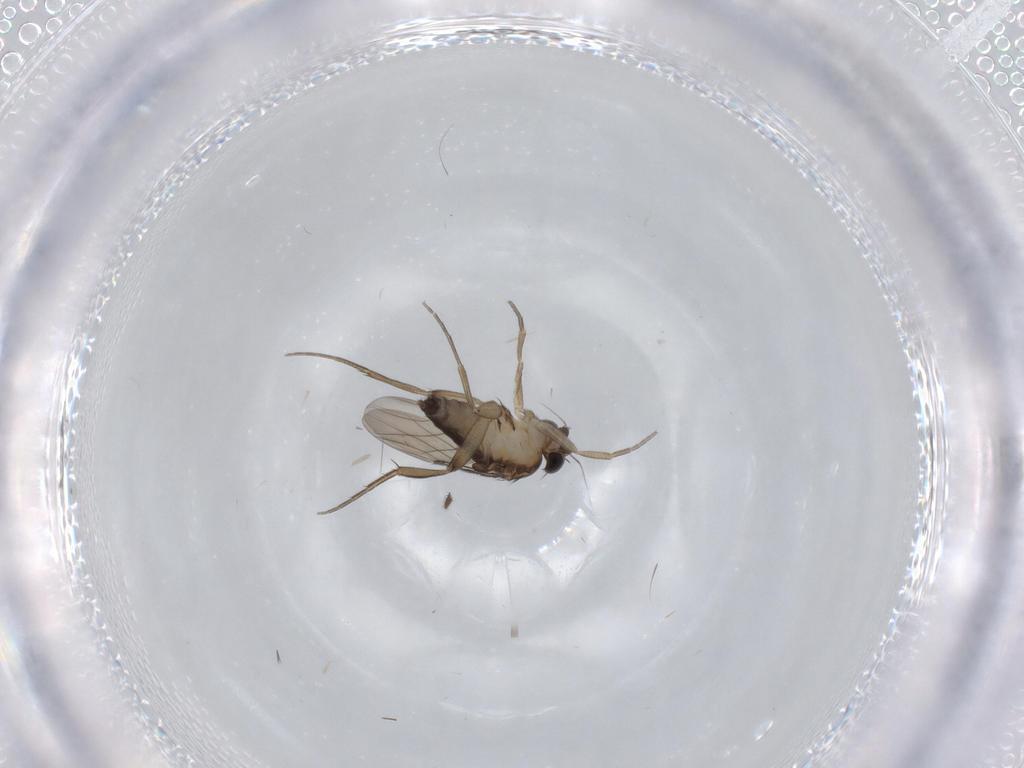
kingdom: Animalia
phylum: Arthropoda
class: Insecta
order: Diptera
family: Phoridae
